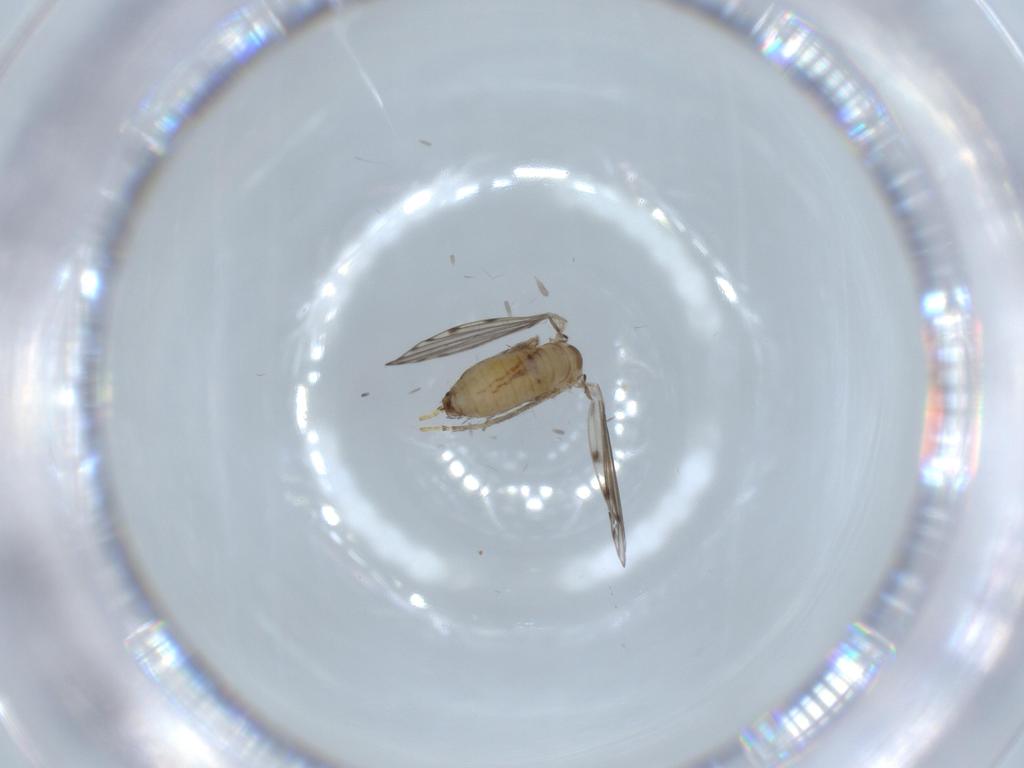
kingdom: Animalia
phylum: Arthropoda
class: Insecta
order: Diptera
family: Psychodidae
